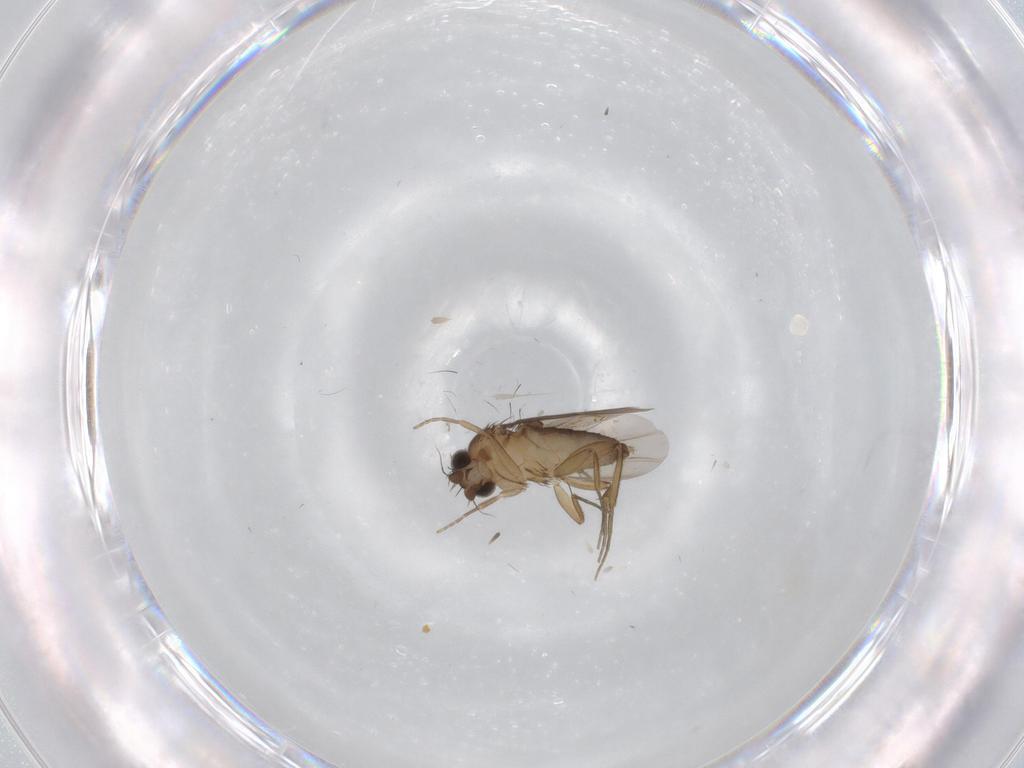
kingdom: Animalia
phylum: Arthropoda
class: Insecta
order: Diptera
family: Phoridae
